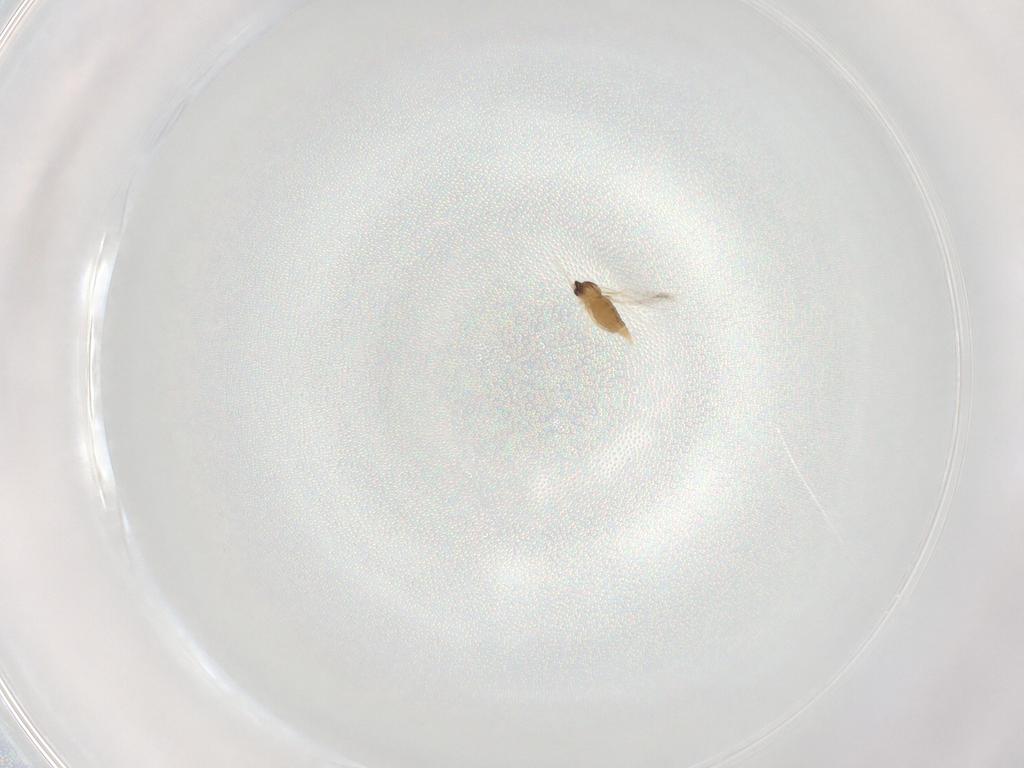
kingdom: Animalia
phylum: Arthropoda
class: Insecta
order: Diptera
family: Cecidomyiidae
